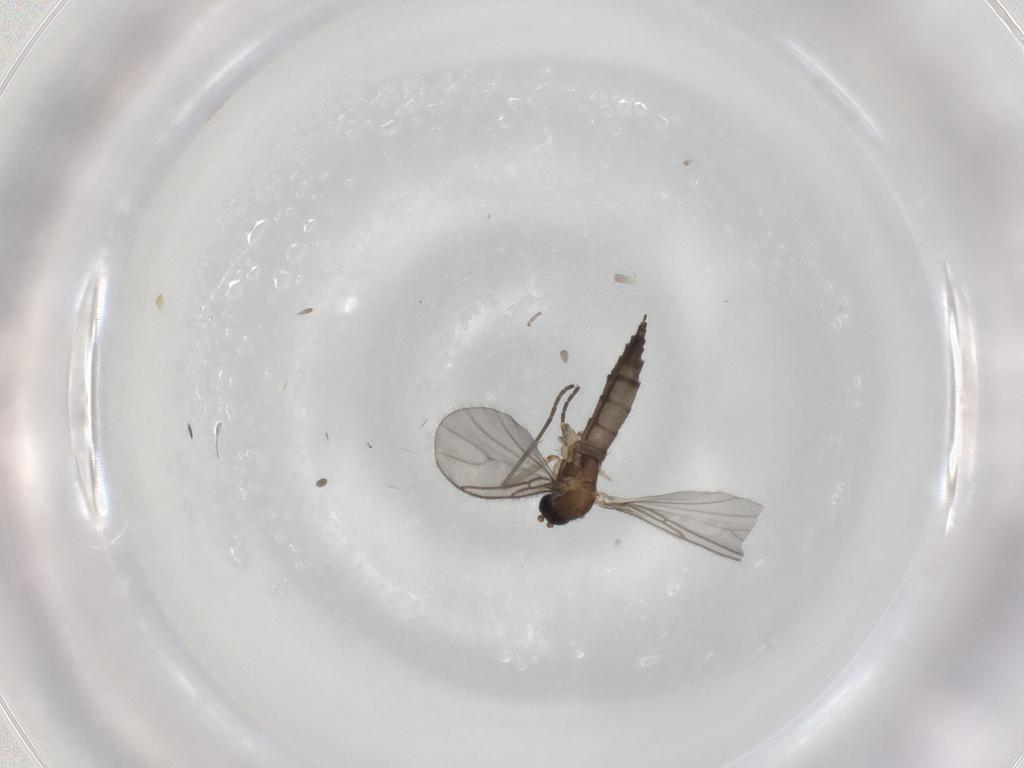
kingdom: Animalia
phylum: Arthropoda
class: Insecta
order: Diptera
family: Sciaridae
